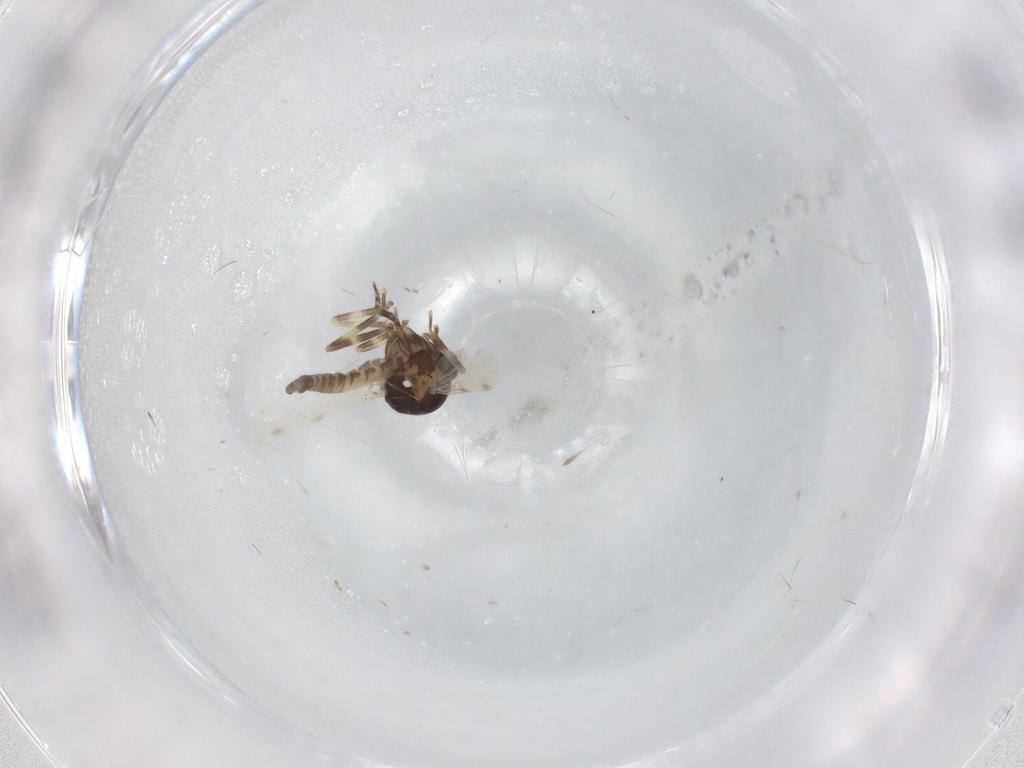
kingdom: Animalia
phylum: Arthropoda
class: Insecta
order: Diptera
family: Ceratopogonidae
